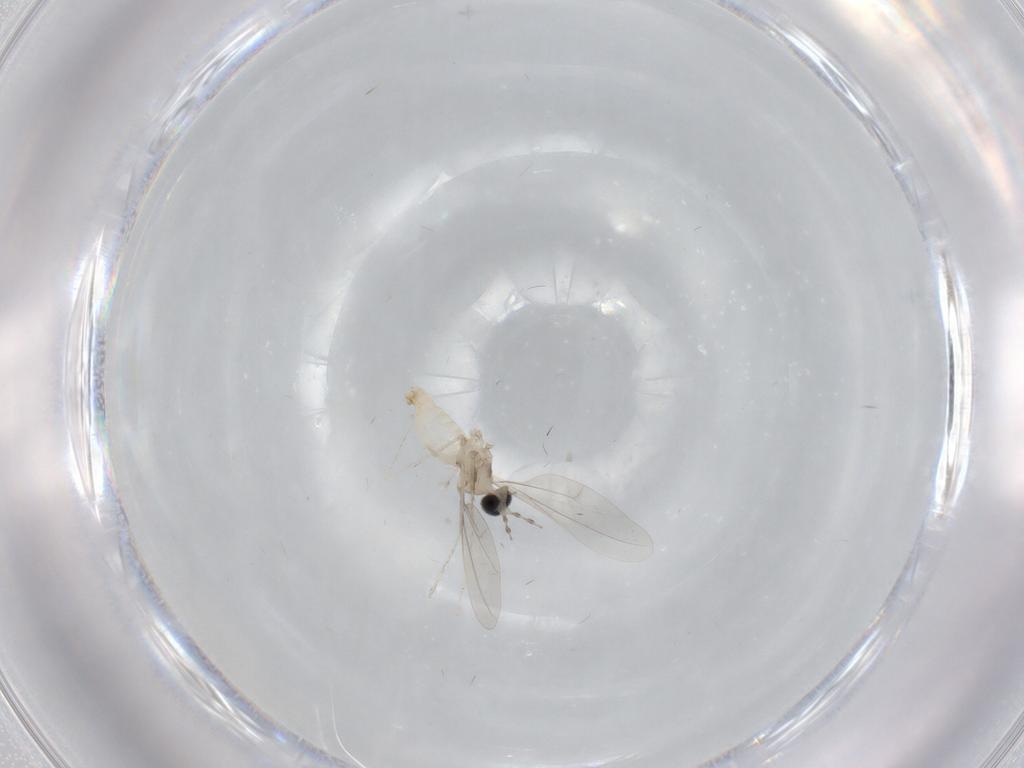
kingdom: Animalia
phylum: Arthropoda
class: Insecta
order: Diptera
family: Cecidomyiidae
